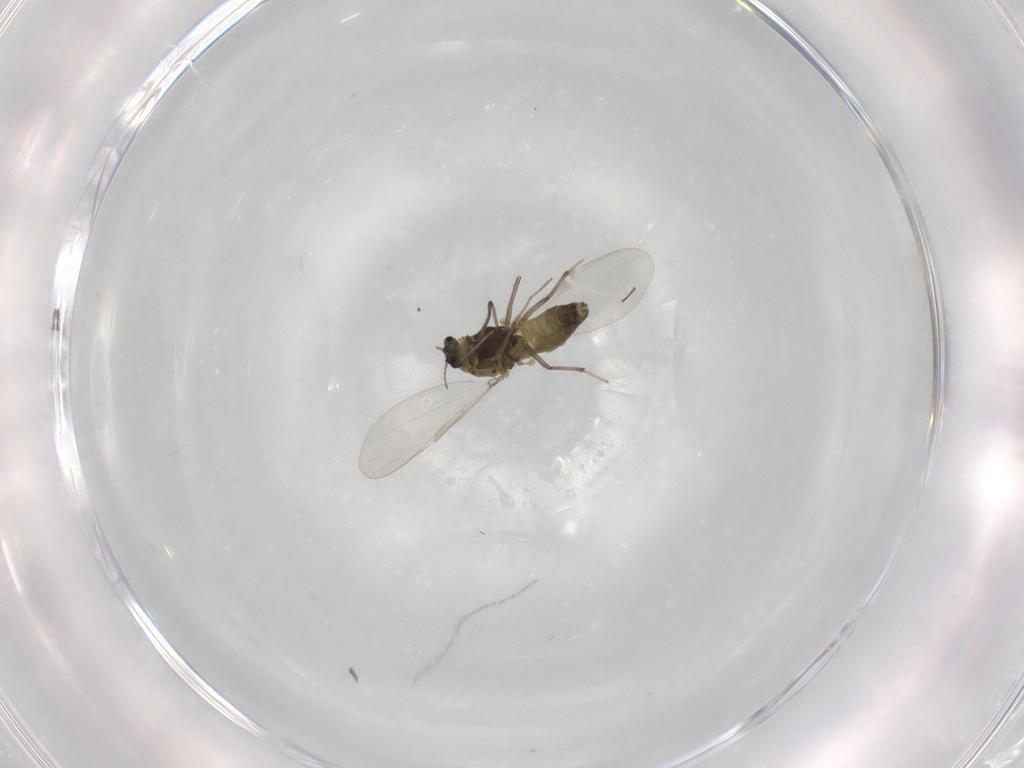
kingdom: Animalia
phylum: Arthropoda
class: Insecta
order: Diptera
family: Chironomidae
